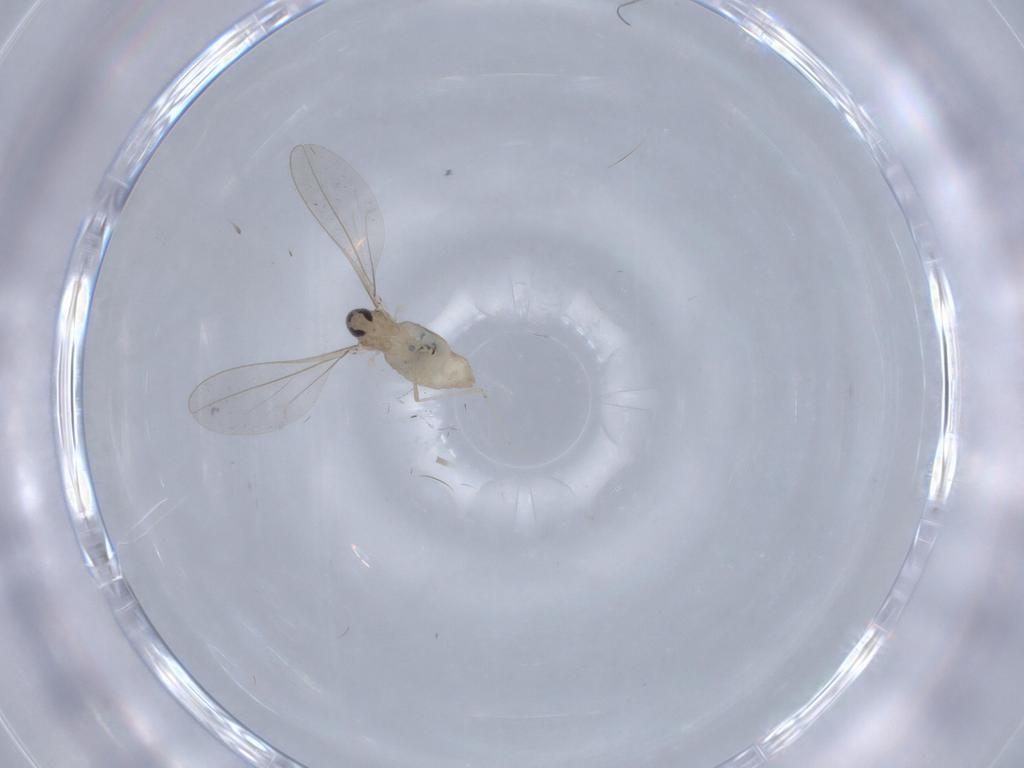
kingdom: Animalia
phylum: Arthropoda
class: Insecta
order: Diptera
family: Cecidomyiidae
